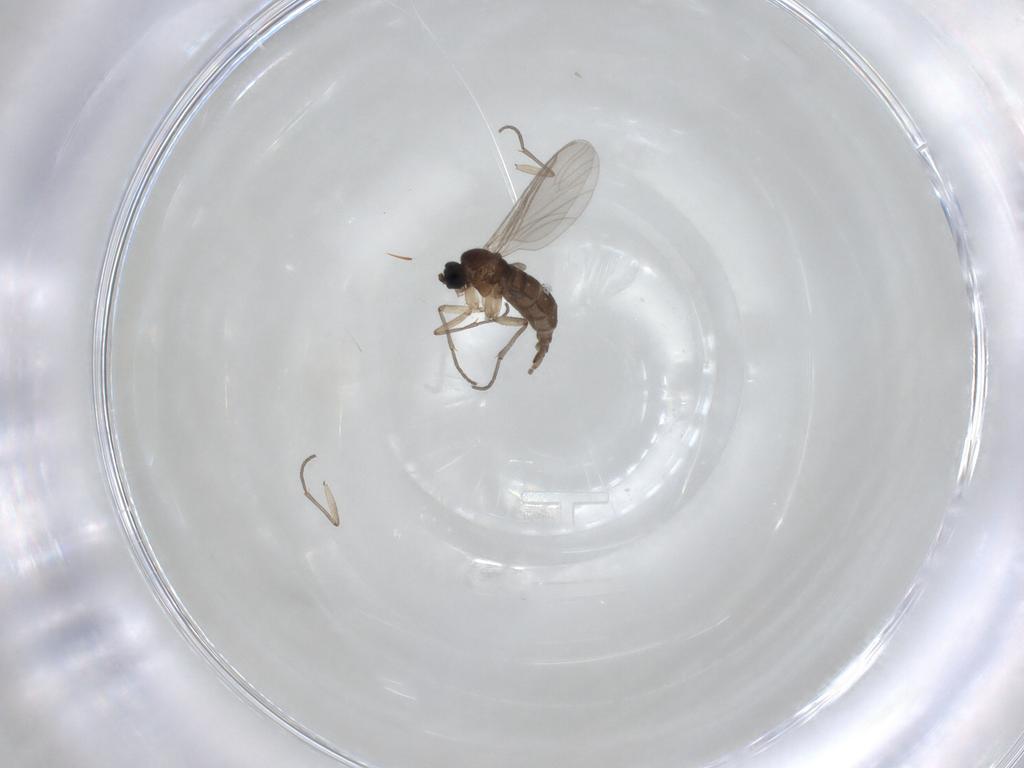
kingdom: Animalia
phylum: Arthropoda
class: Insecta
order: Diptera
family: Sciaridae
